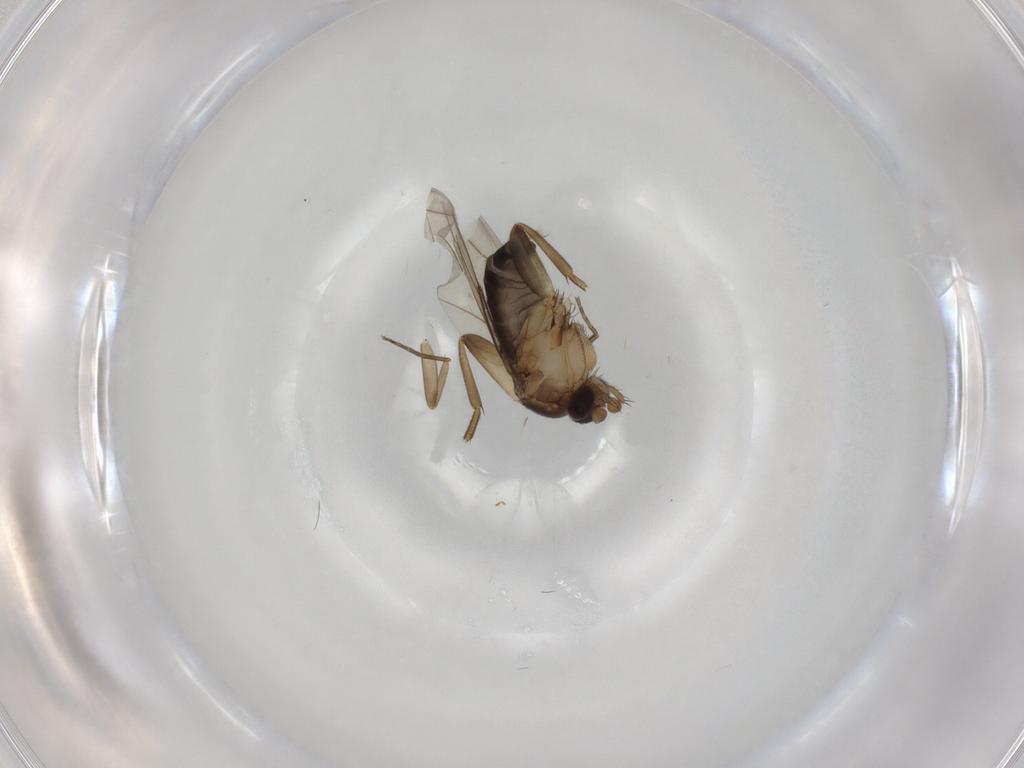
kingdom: Animalia
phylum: Arthropoda
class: Insecta
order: Diptera
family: Phoridae
